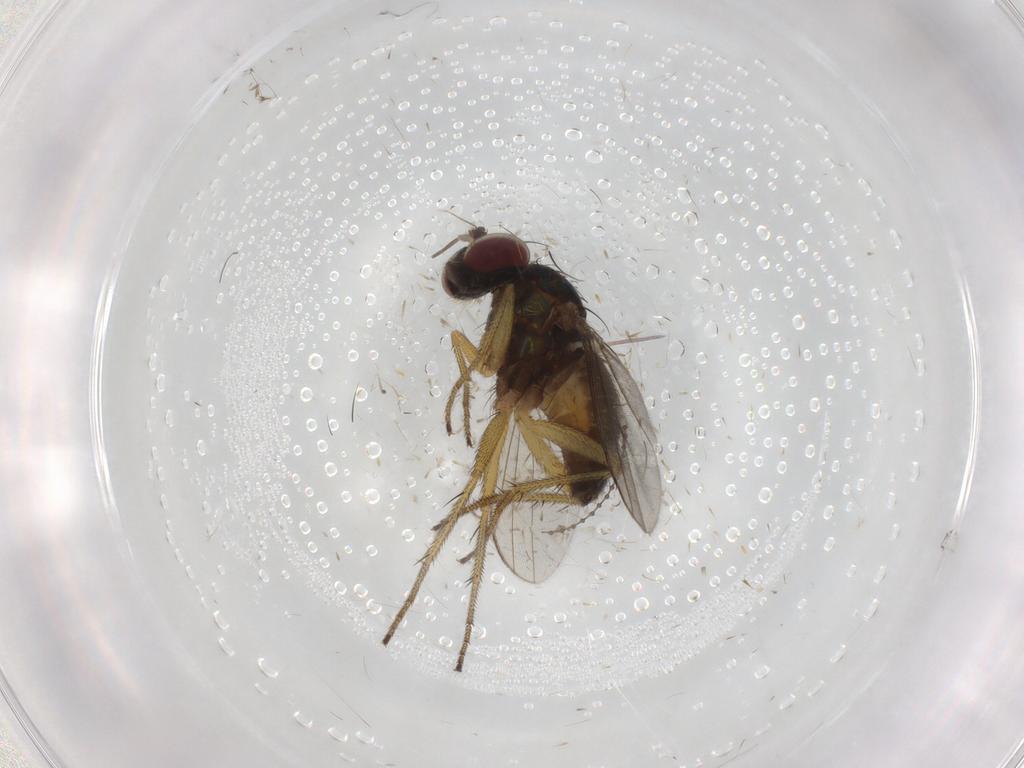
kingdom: Animalia
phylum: Arthropoda
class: Insecta
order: Diptera
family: Chironomidae
